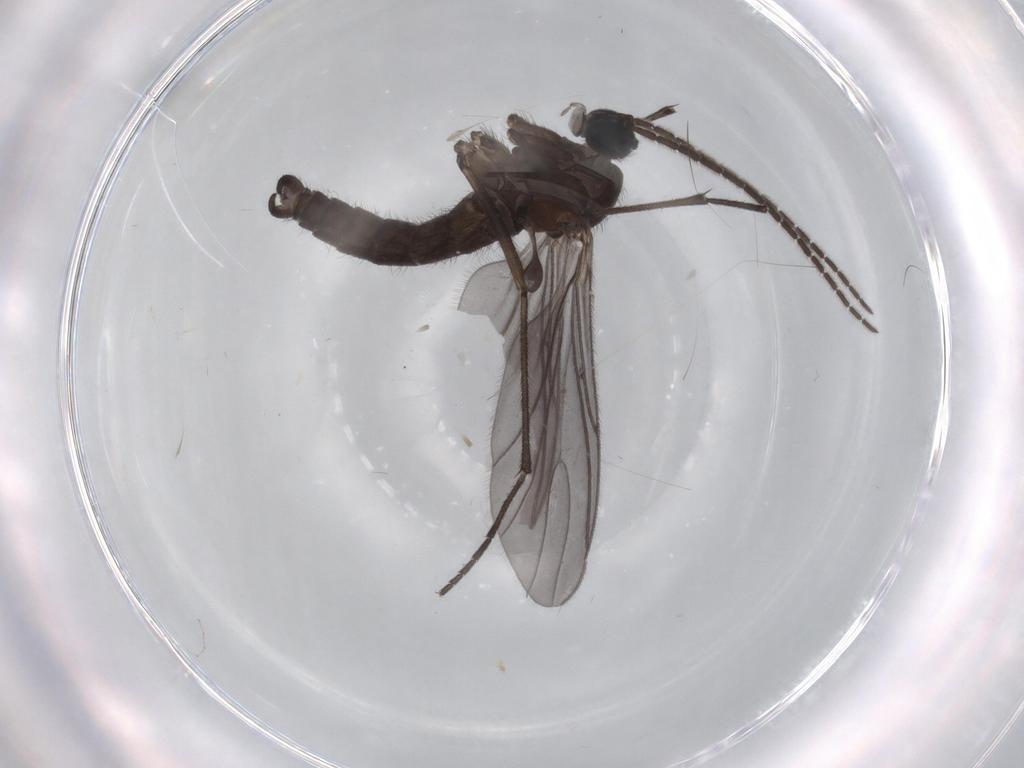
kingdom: Animalia
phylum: Arthropoda
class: Insecta
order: Diptera
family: Sciaridae
